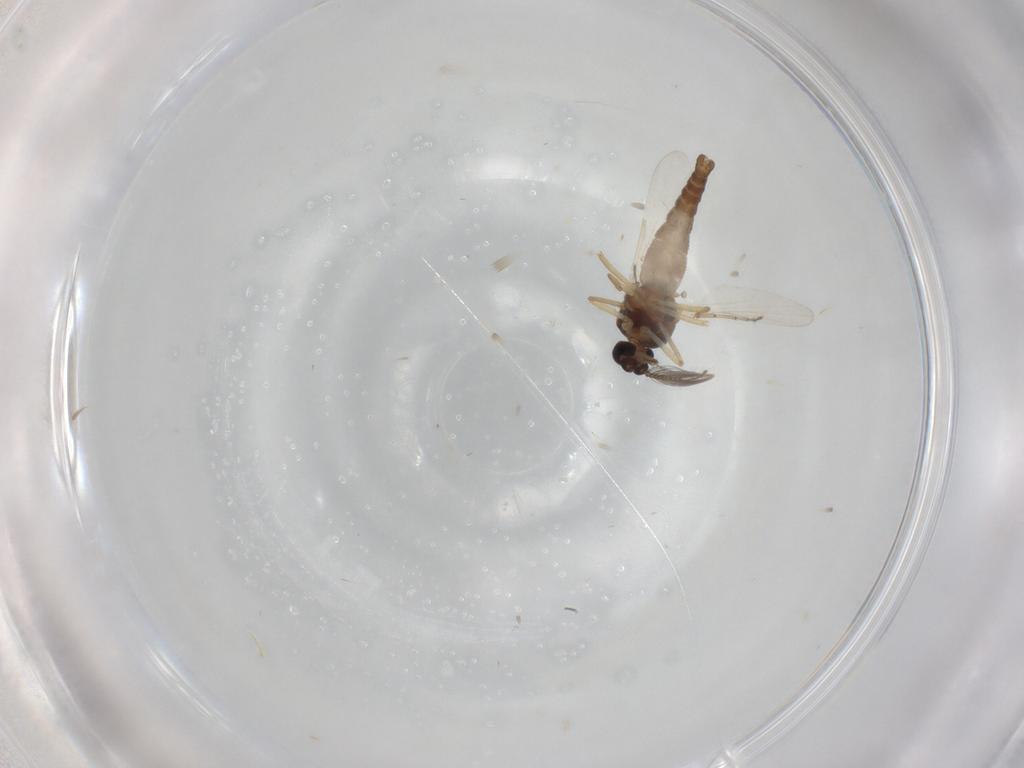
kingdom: Animalia
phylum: Arthropoda
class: Insecta
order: Diptera
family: Ceratopogonidae
